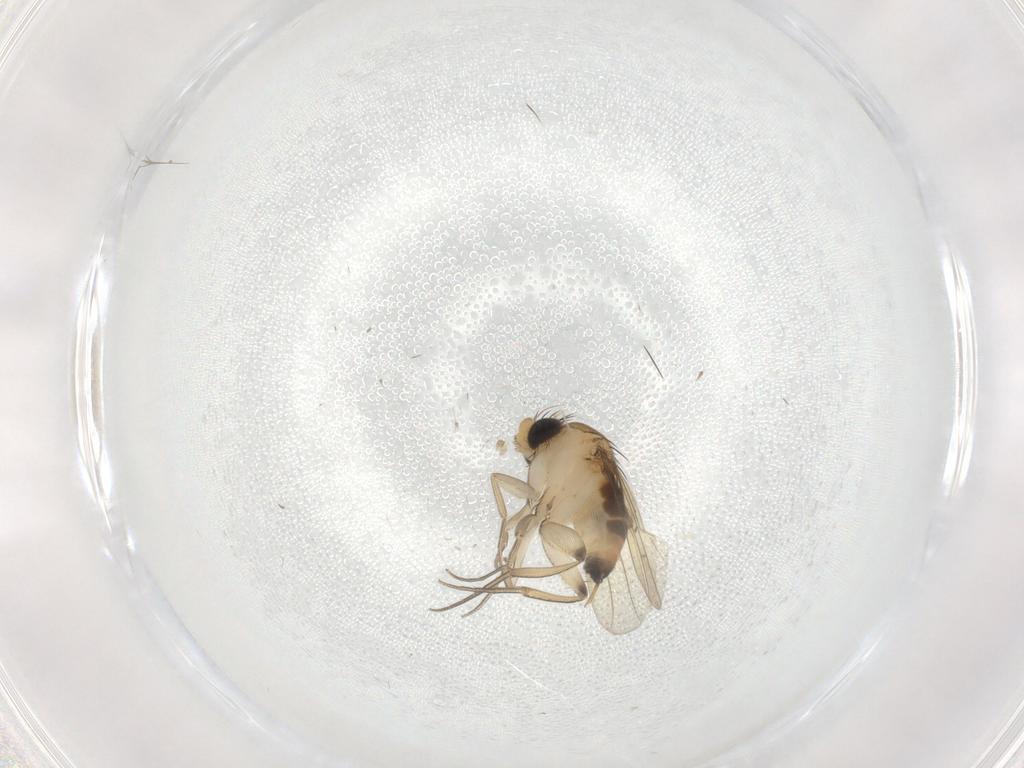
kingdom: Animalia
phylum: Arthropoda
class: Insecta
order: Diptera
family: Phoridae
